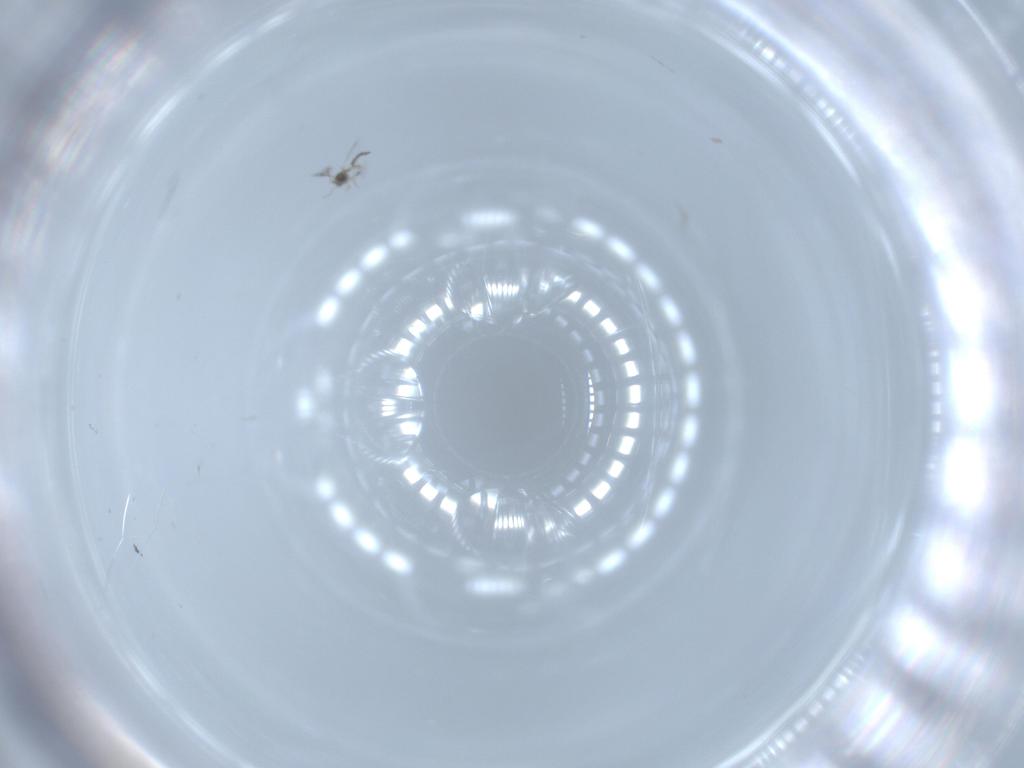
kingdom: Animalia
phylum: Arthropoda
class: Insecta
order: Hymenoptera
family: Mymaridae
